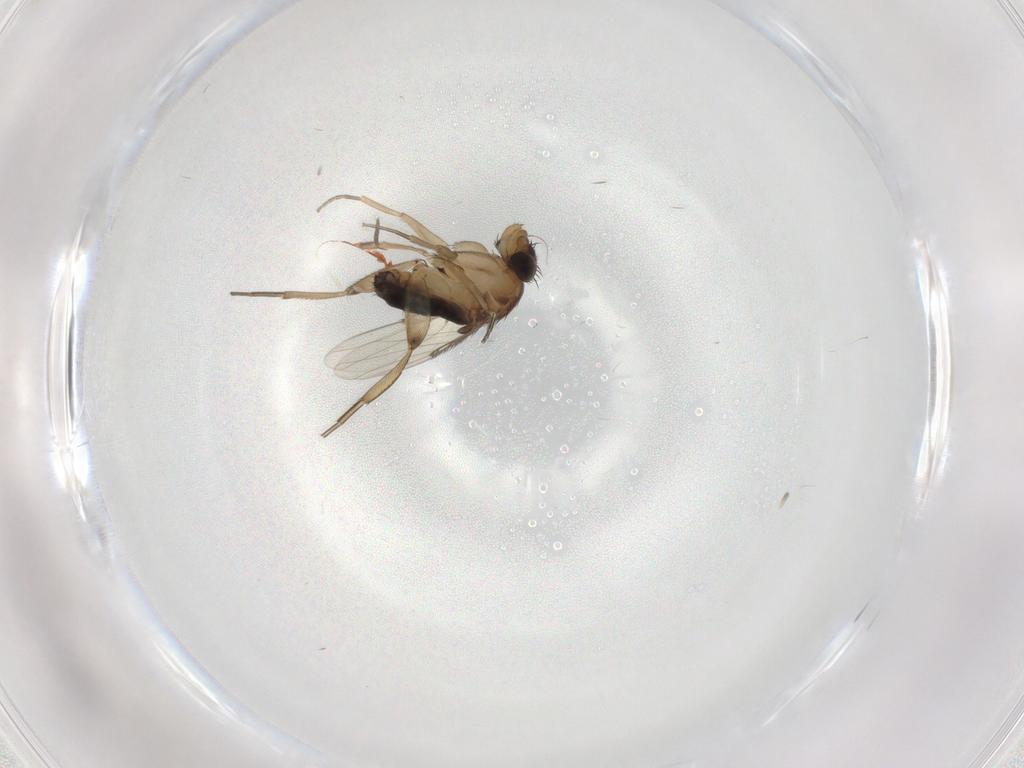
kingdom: Animalia
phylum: Arthropoda
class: Insecta
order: Diptera
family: Phoridae
